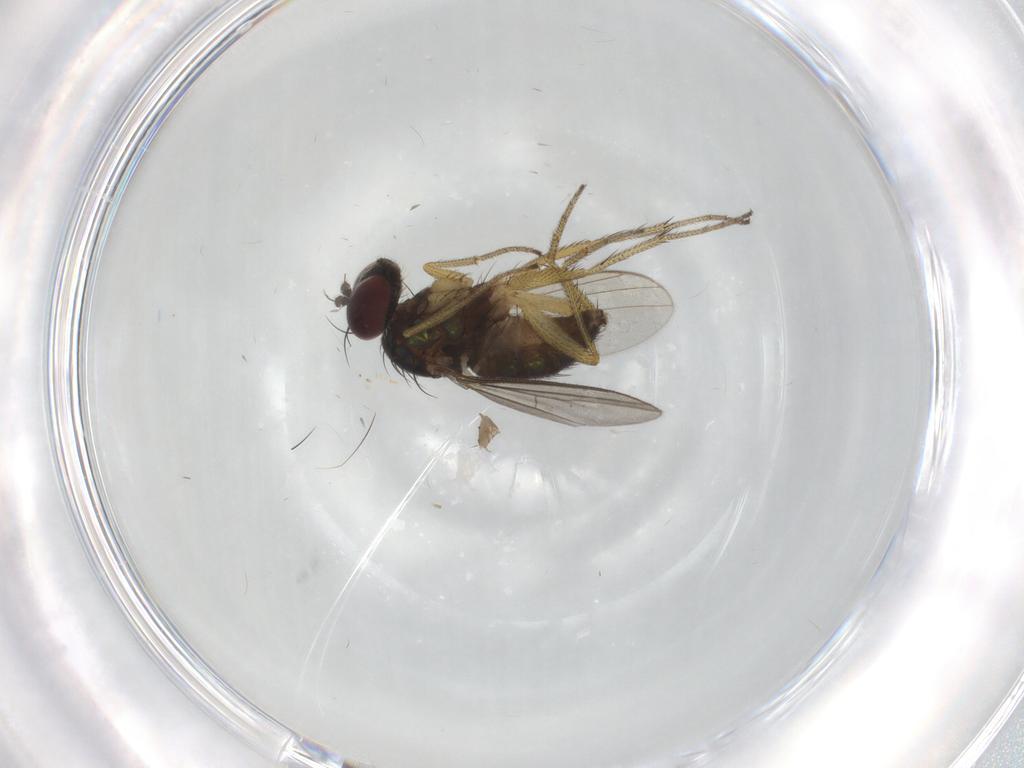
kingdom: Animalia
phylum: Arthropoda
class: Insecta
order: Diptera
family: Dolichopodidae
